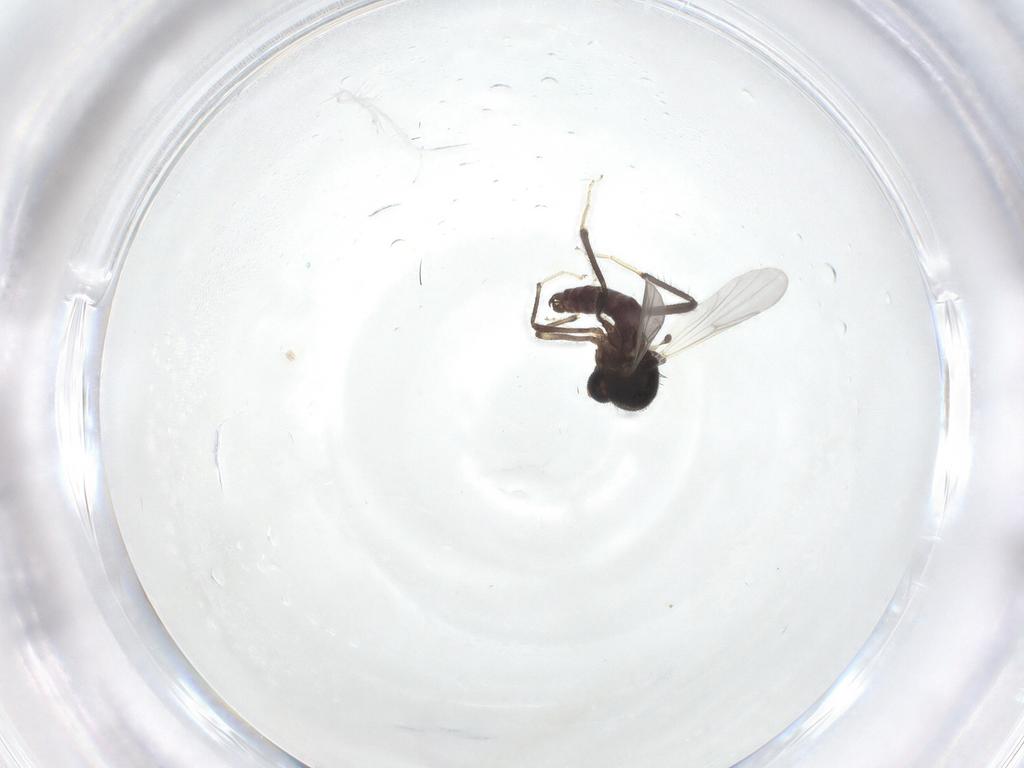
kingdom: Animalia
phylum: Arthropoda
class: Insecta
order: Diptera
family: Ceratopogonidae
